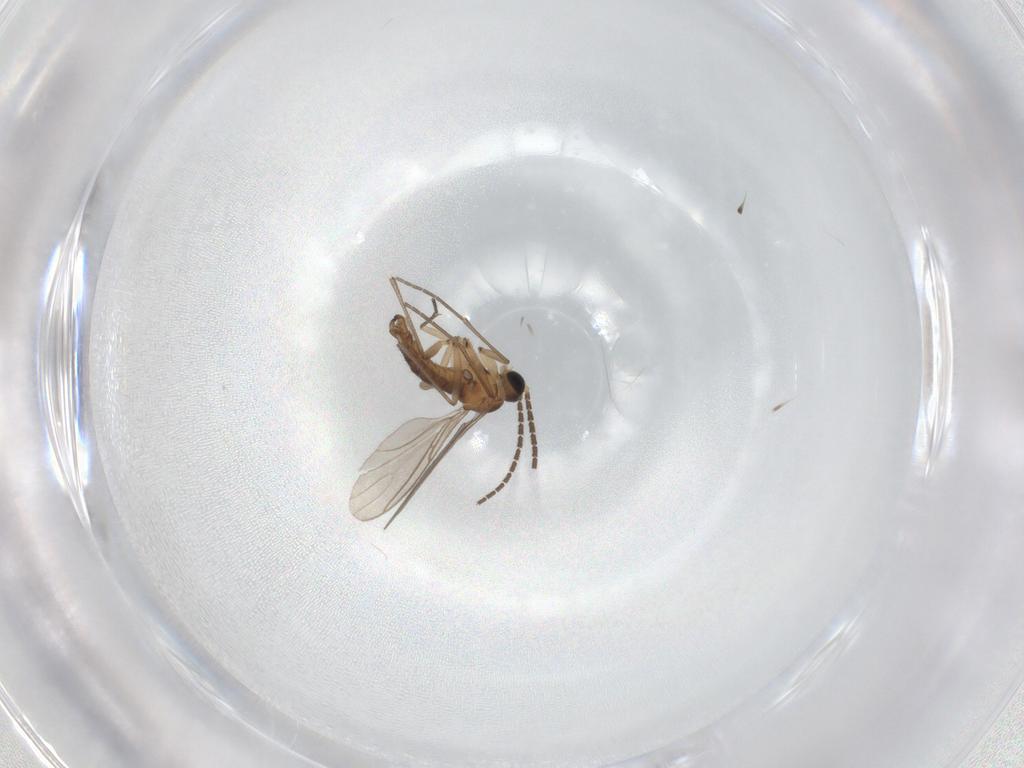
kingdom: Animalia
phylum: Arthropoda
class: Insecta
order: Diptera
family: Sciaridae
